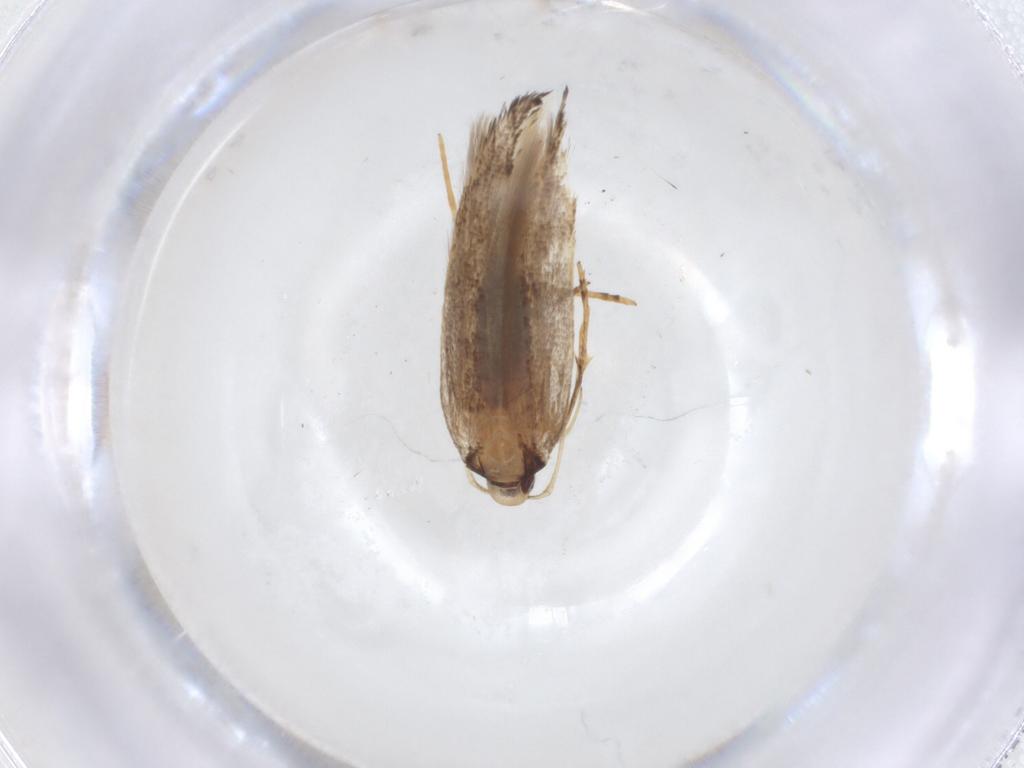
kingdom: Animalia
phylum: Arthropoda
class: Insecta
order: Lepidoptera
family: Cosmopterigidae
